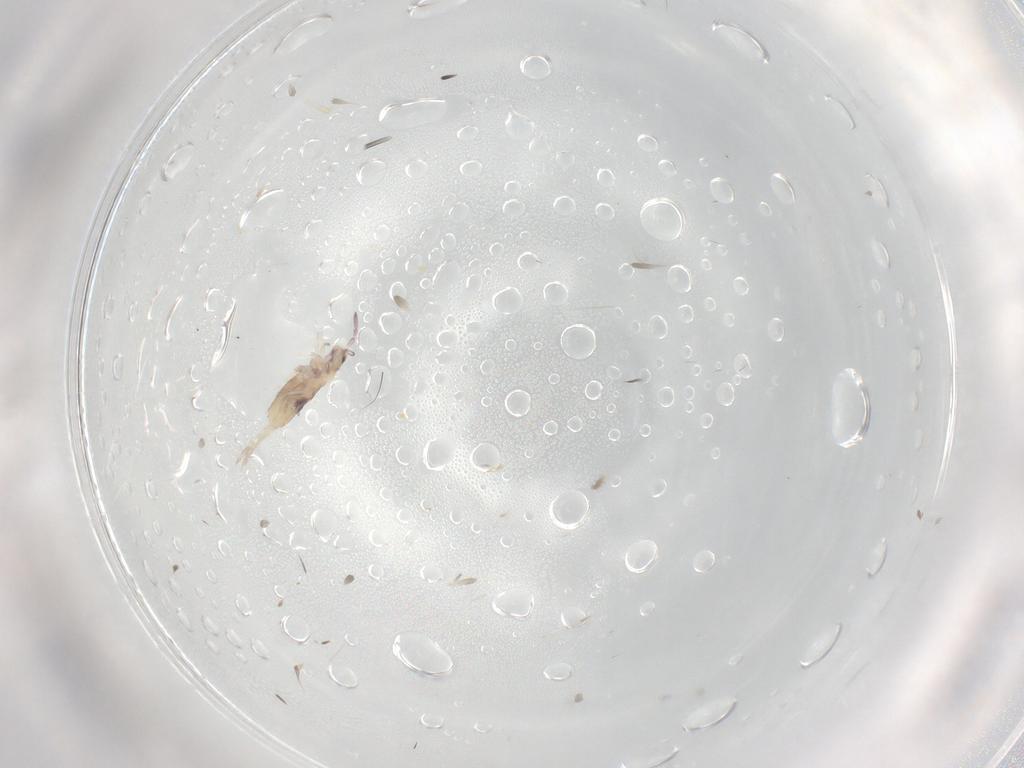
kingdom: Animalia
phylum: Arthropoda
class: Collembola
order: Entomobryomorpha
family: Entomobryidae
